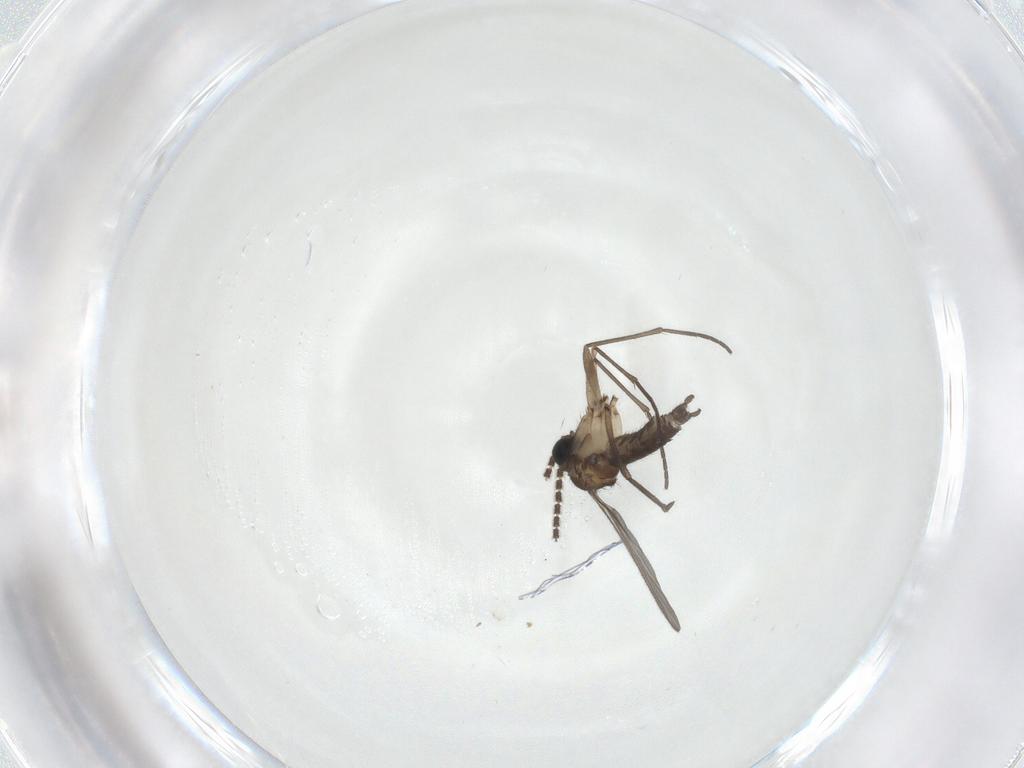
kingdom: Animalia
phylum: Arthropoda
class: Insecta
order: Diptera
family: Sciaridae
